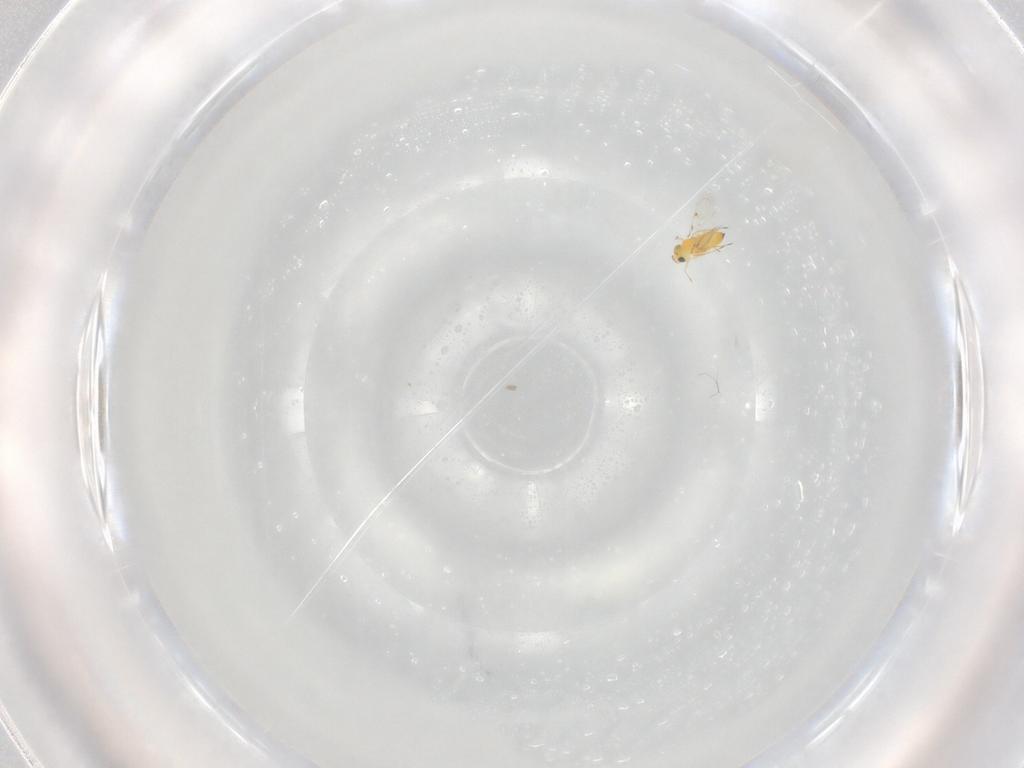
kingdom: Animalia
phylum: Arthropoda
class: Insecta
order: Hymenoptera
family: Trichogrammatidae
